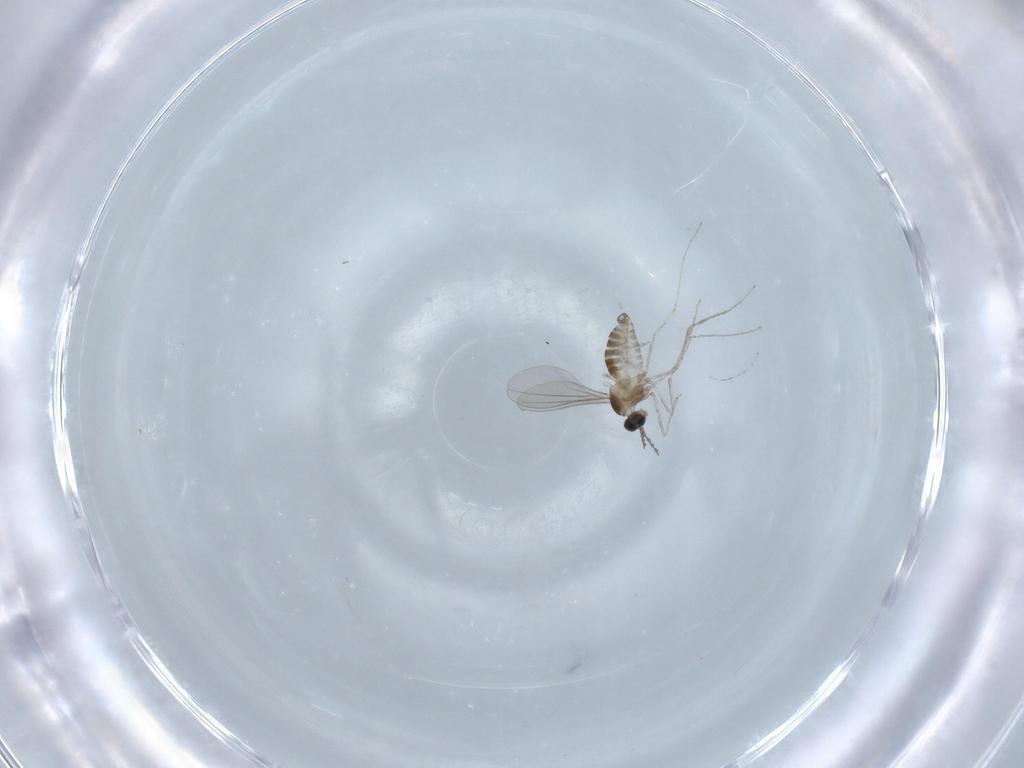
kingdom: Animalia
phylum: Arthropoda
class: Insecta
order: Diptera
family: Cecidomyiidae
